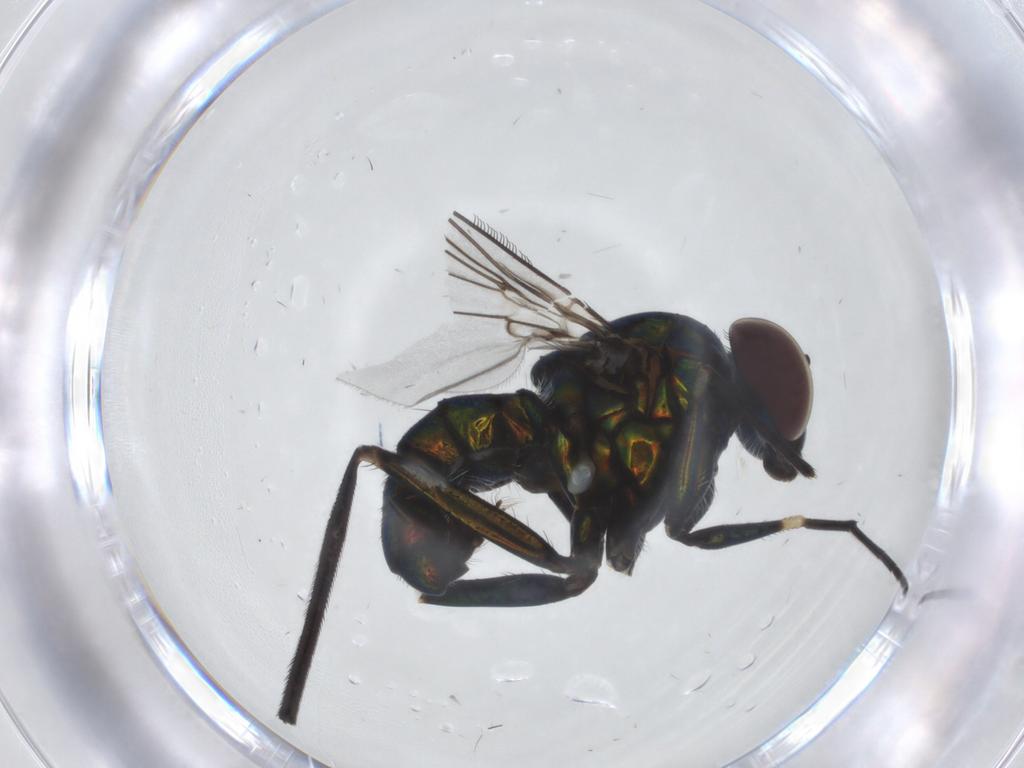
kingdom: Animalia
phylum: Arthropoda
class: Insecta
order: Diptera
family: Dolichopodidae
